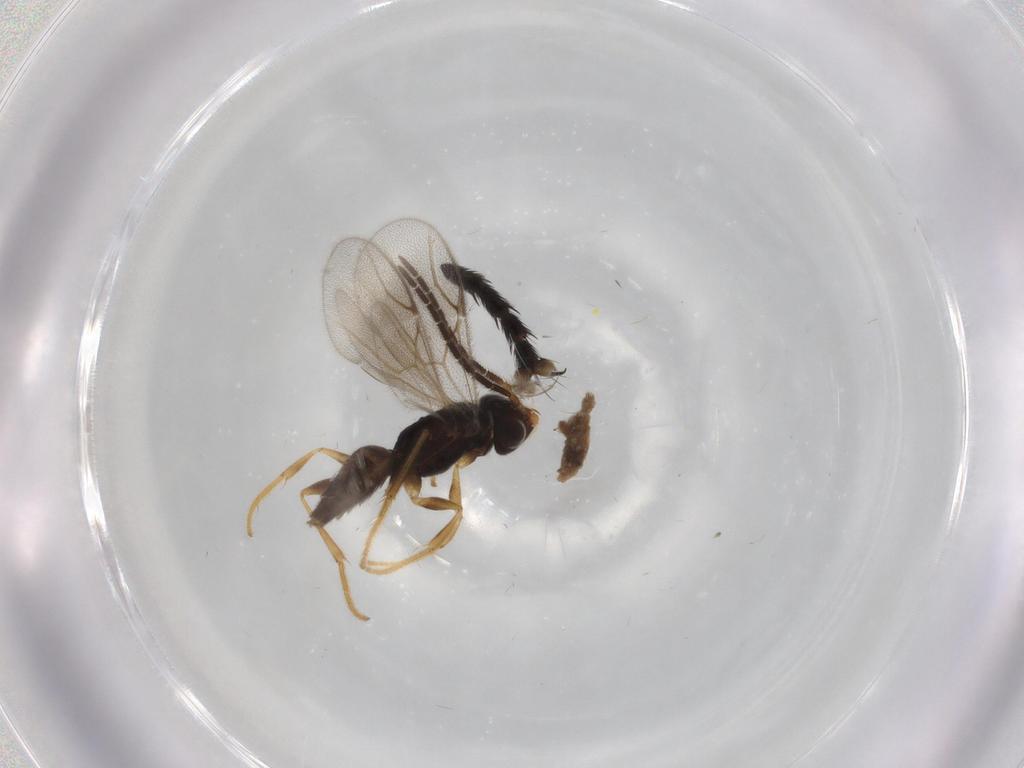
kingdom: Animalia
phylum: Arthropoda
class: Insecta
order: Hymenoptera
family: Dryinidae
